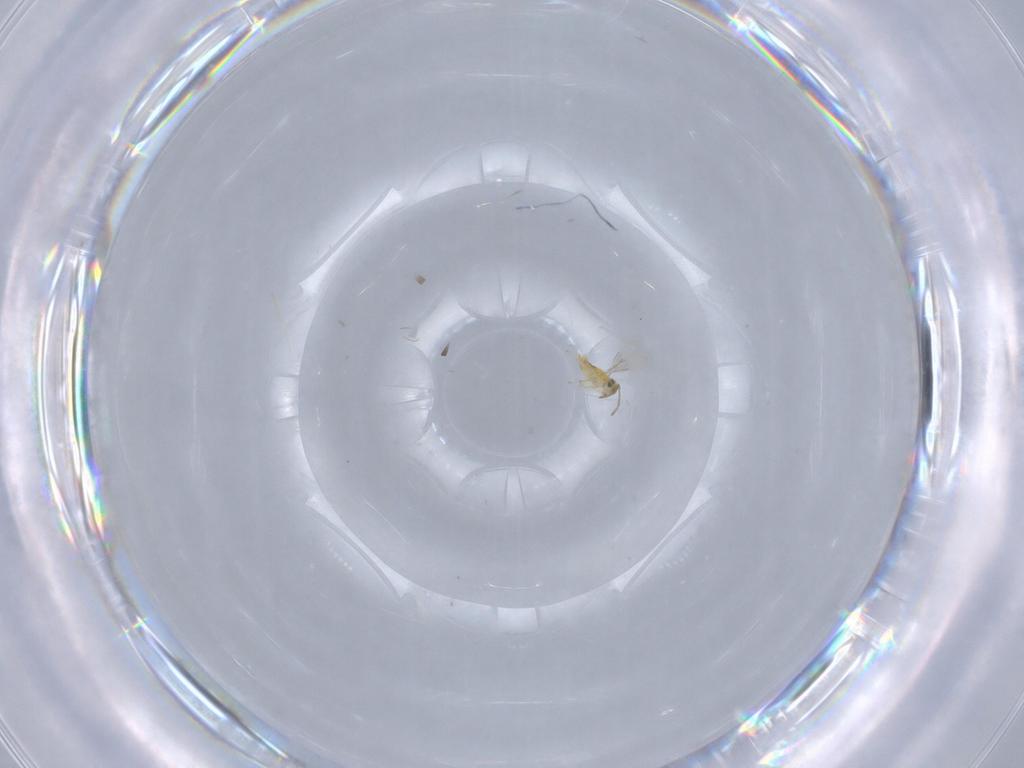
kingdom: Animalia
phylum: Arthropoda
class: Insecta
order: Hymenoptera
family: Aphelinidae
